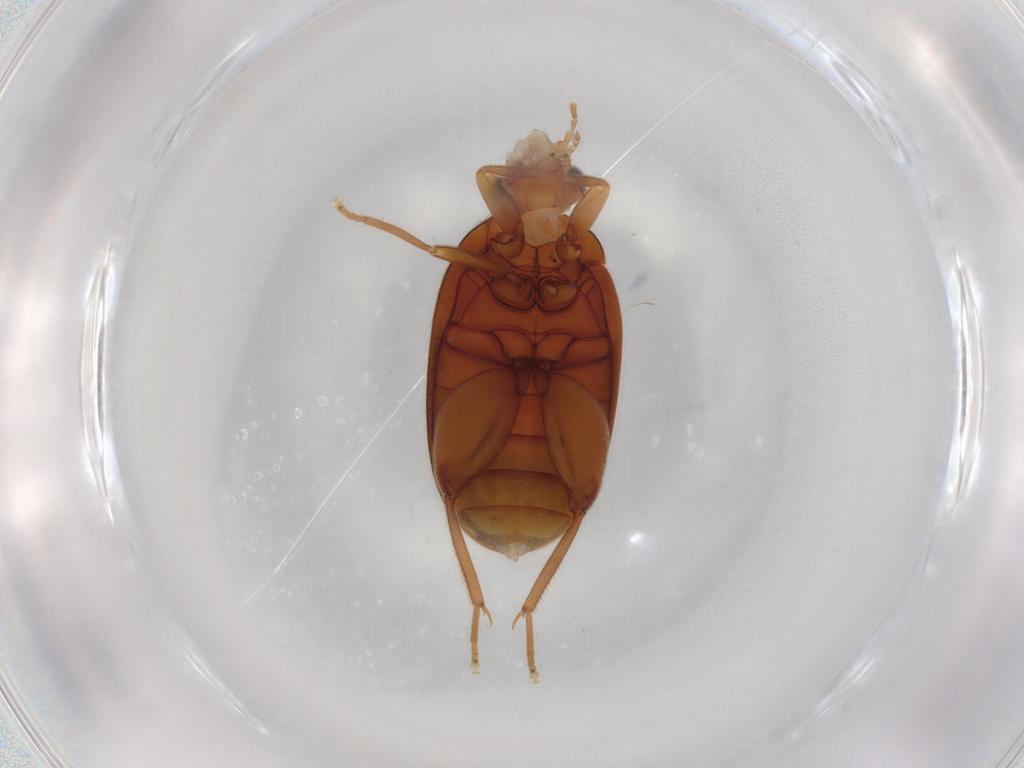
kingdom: Animalia
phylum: Arthropoda
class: Insecta
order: Coleoptera
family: Scirtidae
